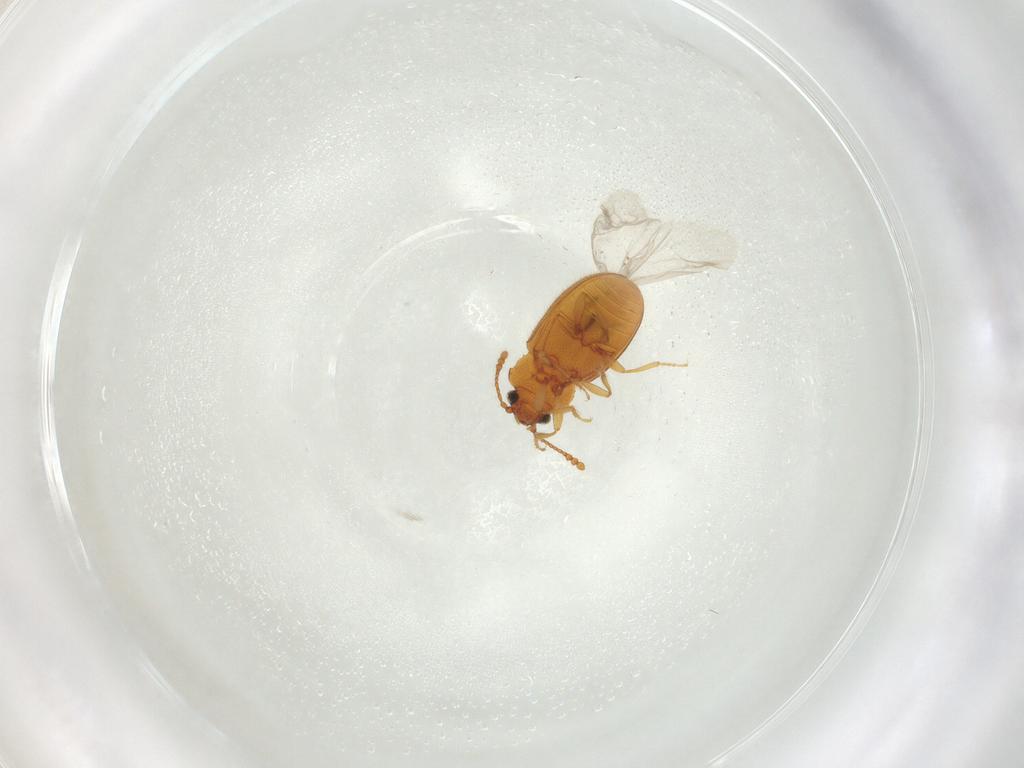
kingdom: Animalia
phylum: Arthropoda
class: Insecta
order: Coleoptera
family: Cryptophagidae
